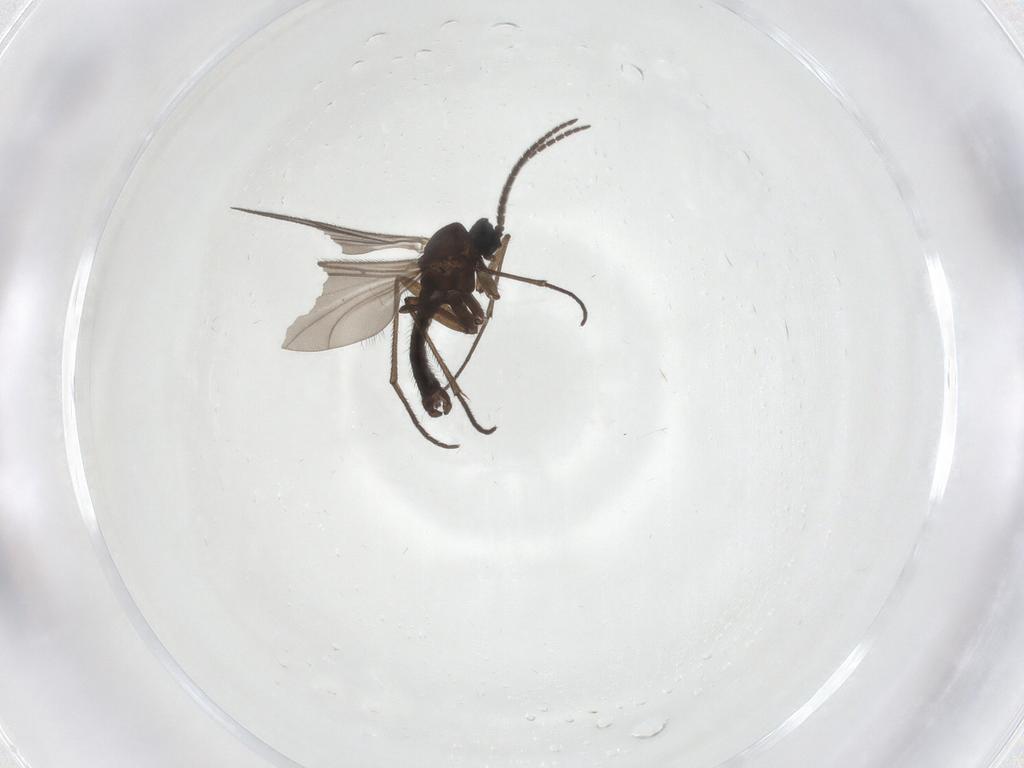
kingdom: Animalia
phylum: Arthropoda
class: Insecta
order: Diptera
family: Sciaridae
